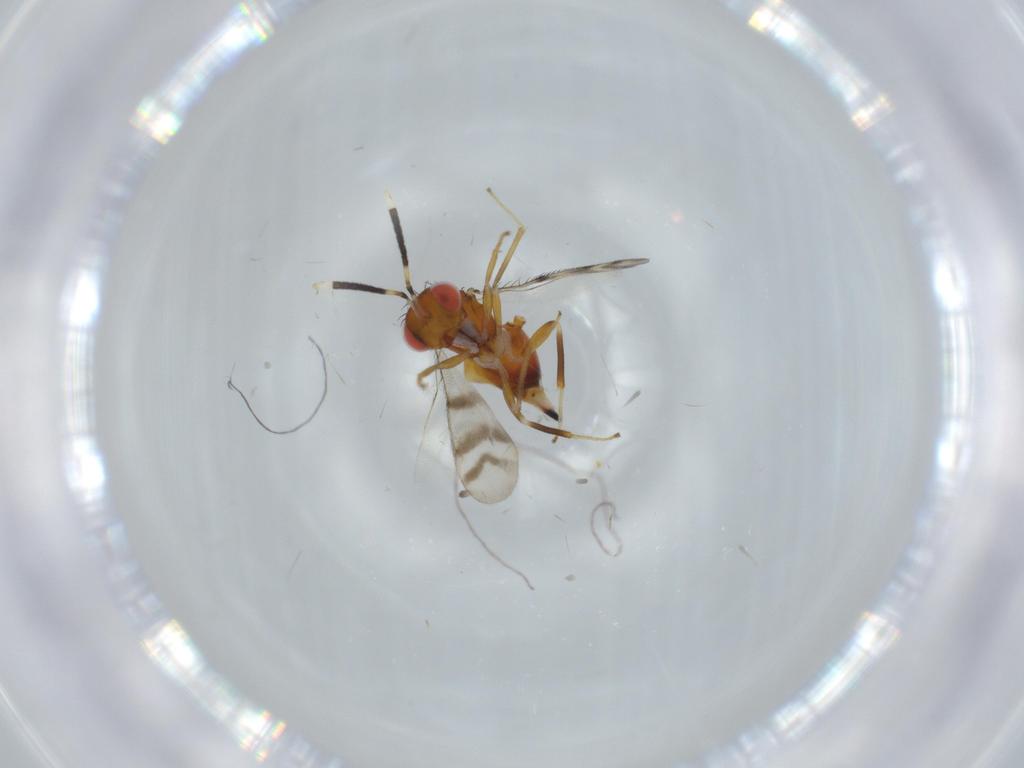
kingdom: Animalia
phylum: Arthropoda
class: Insecta
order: Hymenoptera
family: Diparidae
